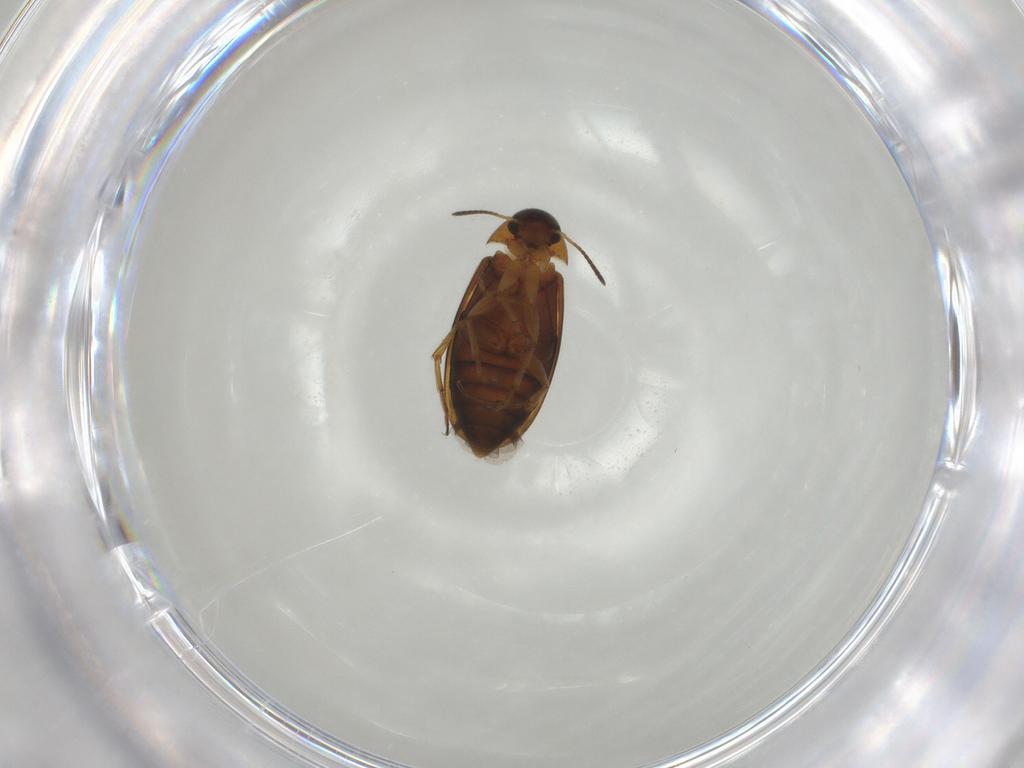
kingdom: Animalia
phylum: Arthropoda
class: Insecta
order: Coleoptera
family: Scraptiidae
